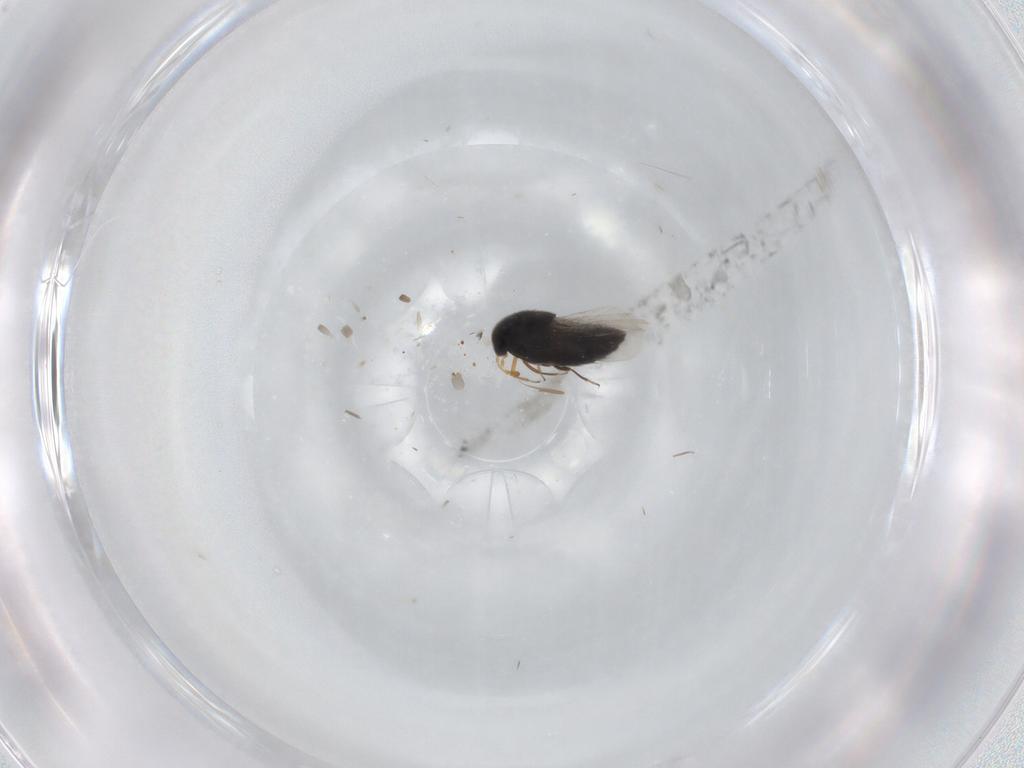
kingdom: Animalia
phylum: Arthropoda
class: Insecta
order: Coleoptera
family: Staphylinidae
